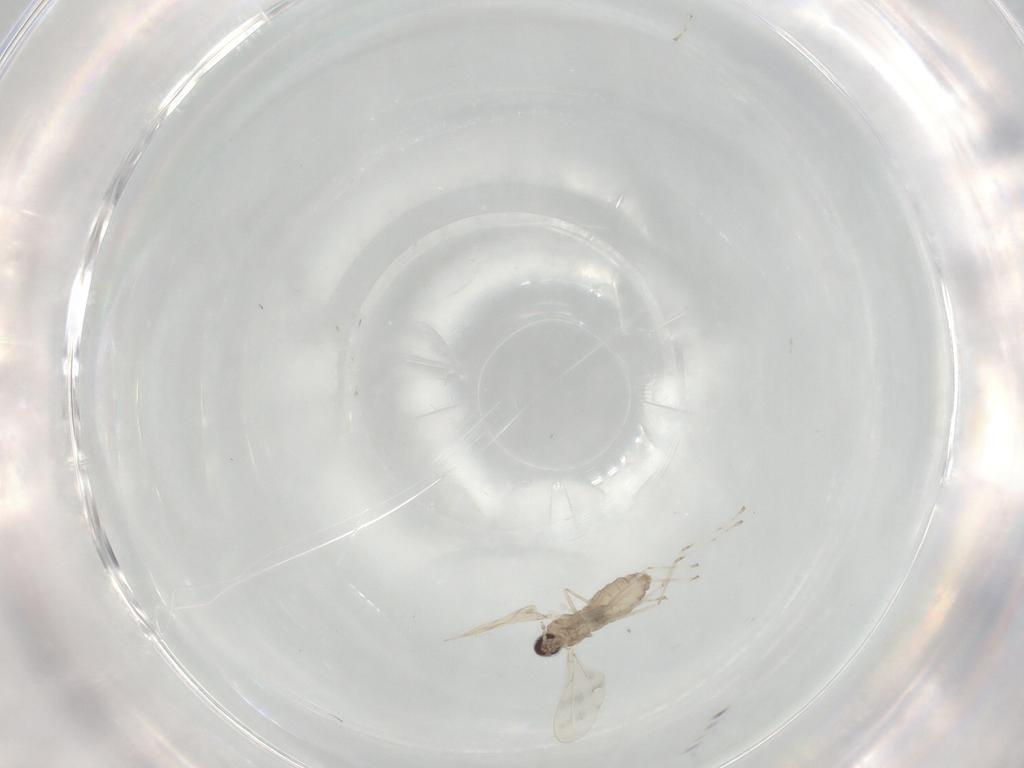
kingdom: Animalia
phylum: Arthropoda
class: Insecta
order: Diptera
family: Cecidomyiidae
